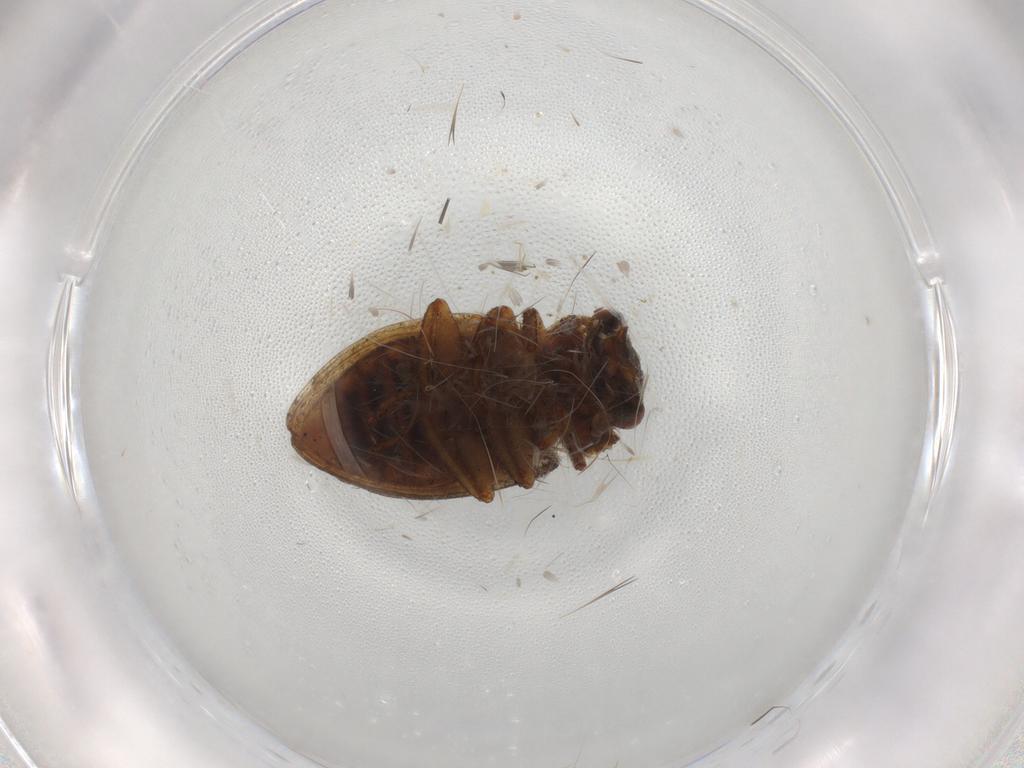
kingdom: Animalia
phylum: Arthropoda
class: Insecta
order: Coleoptera
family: Spercheidae
